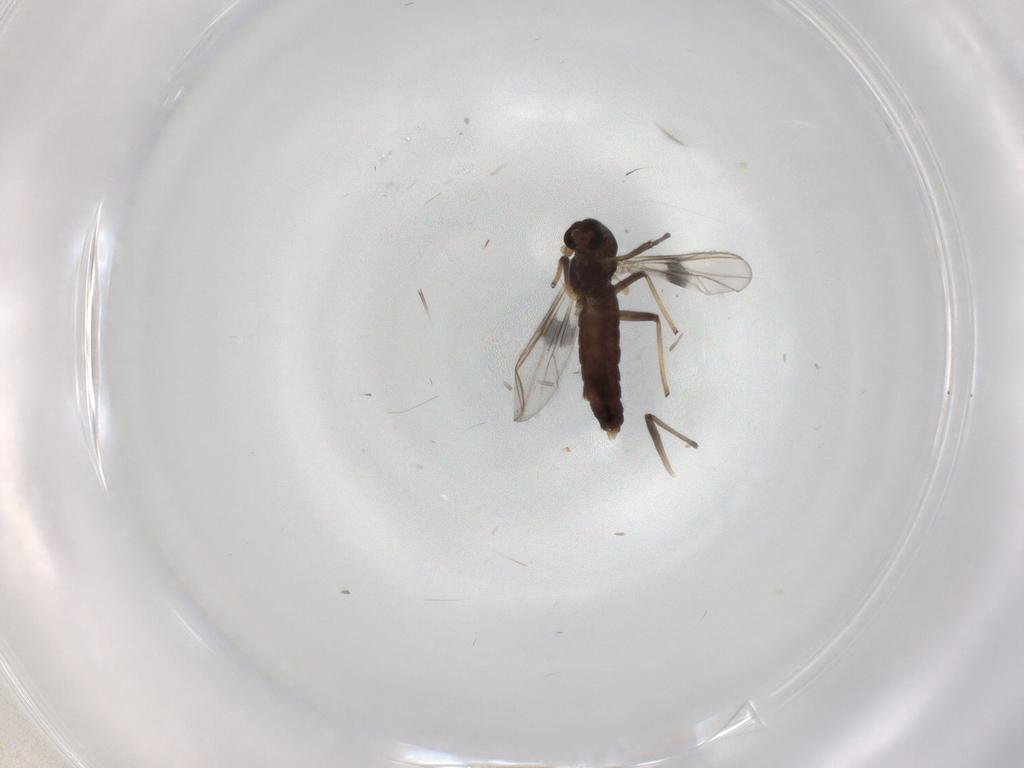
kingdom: Animalia
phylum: Arthropoda
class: Insecta
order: Diptera
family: Chironomidae
